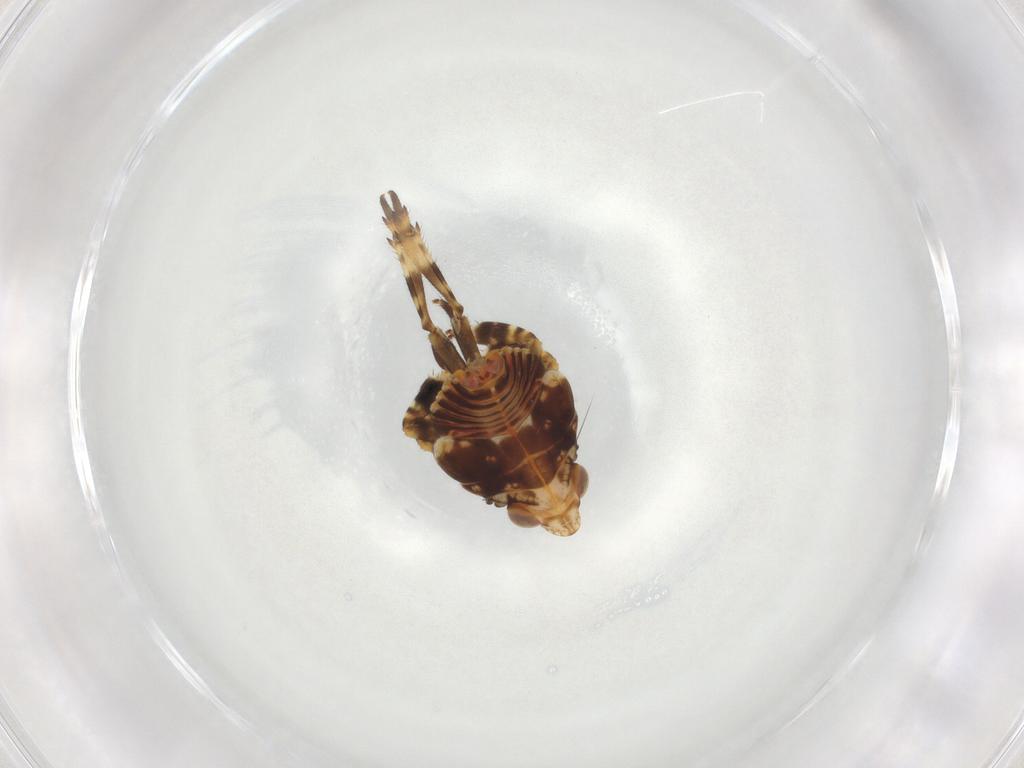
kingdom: Animalia
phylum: Arthropoda
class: Insecta
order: Hemiptera
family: Fulgoroidea_incertae_sedis
